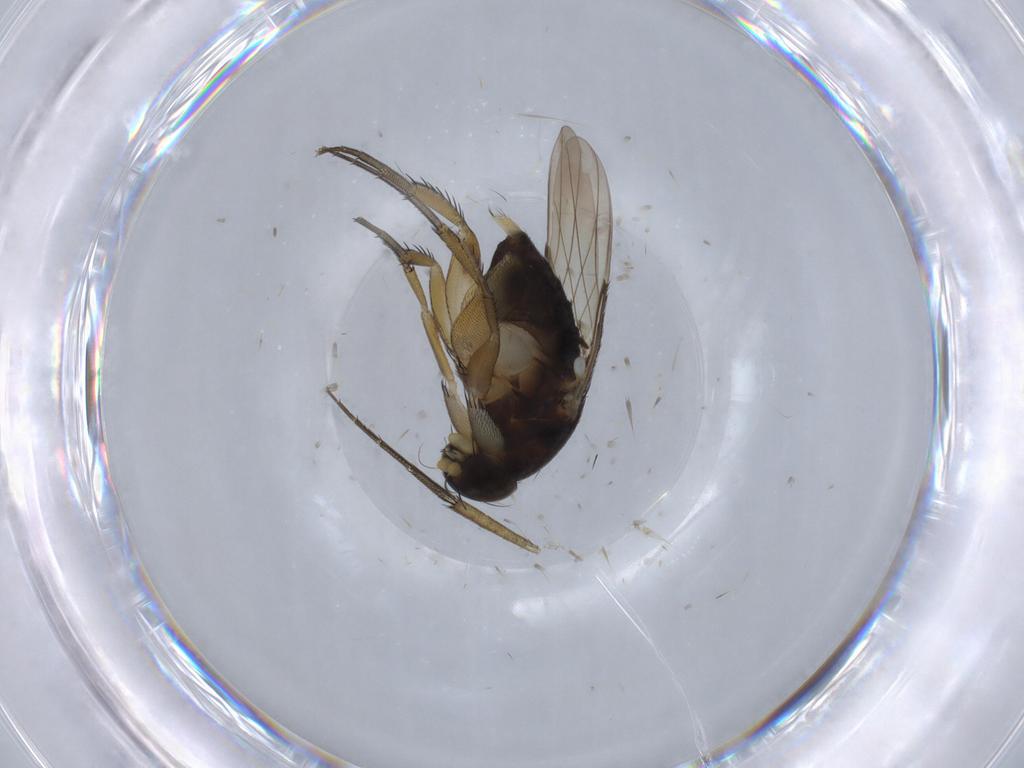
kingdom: Animalia
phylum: Arthropoda
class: Insecta
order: Diptera
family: Phoridae
